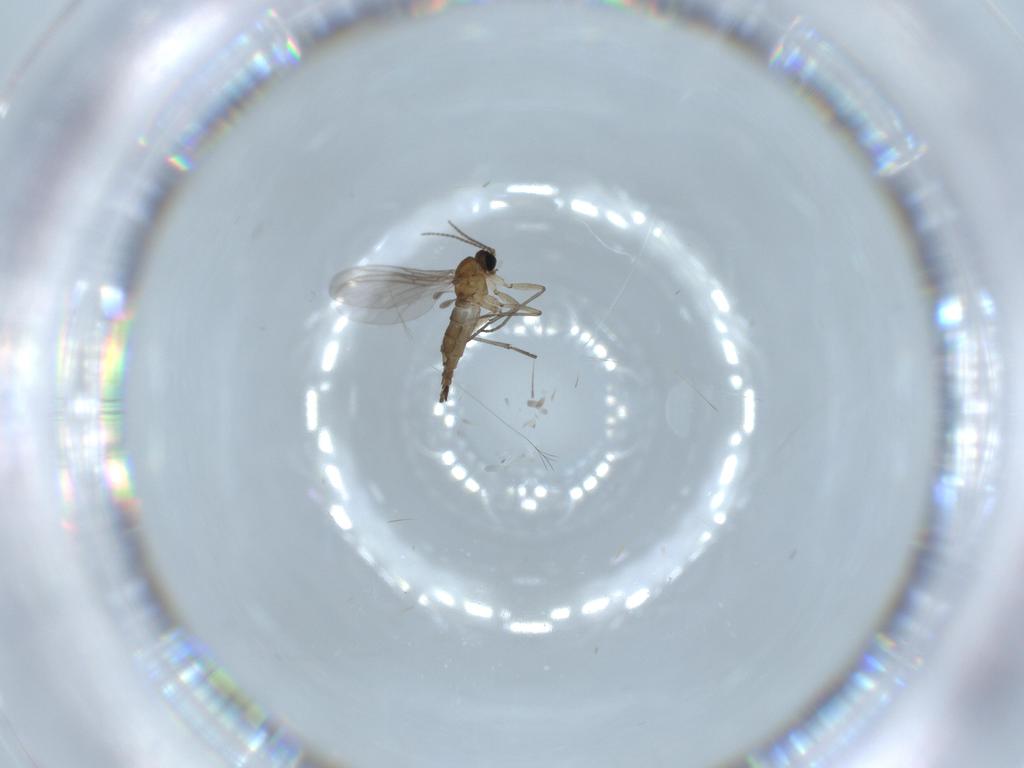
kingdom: Animalia
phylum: Arthropoda
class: Insecta
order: Diptera
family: Sciaridae
